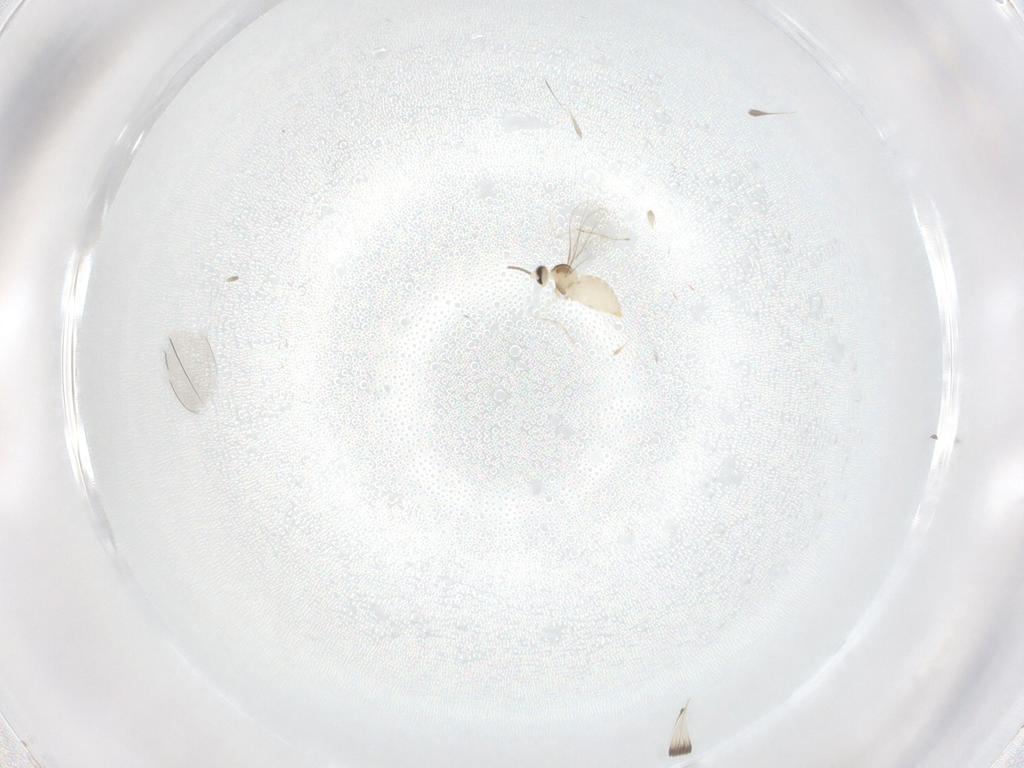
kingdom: Animalia
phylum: Arthropoda
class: Insecta
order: Diptera
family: Cecidomyiidae
